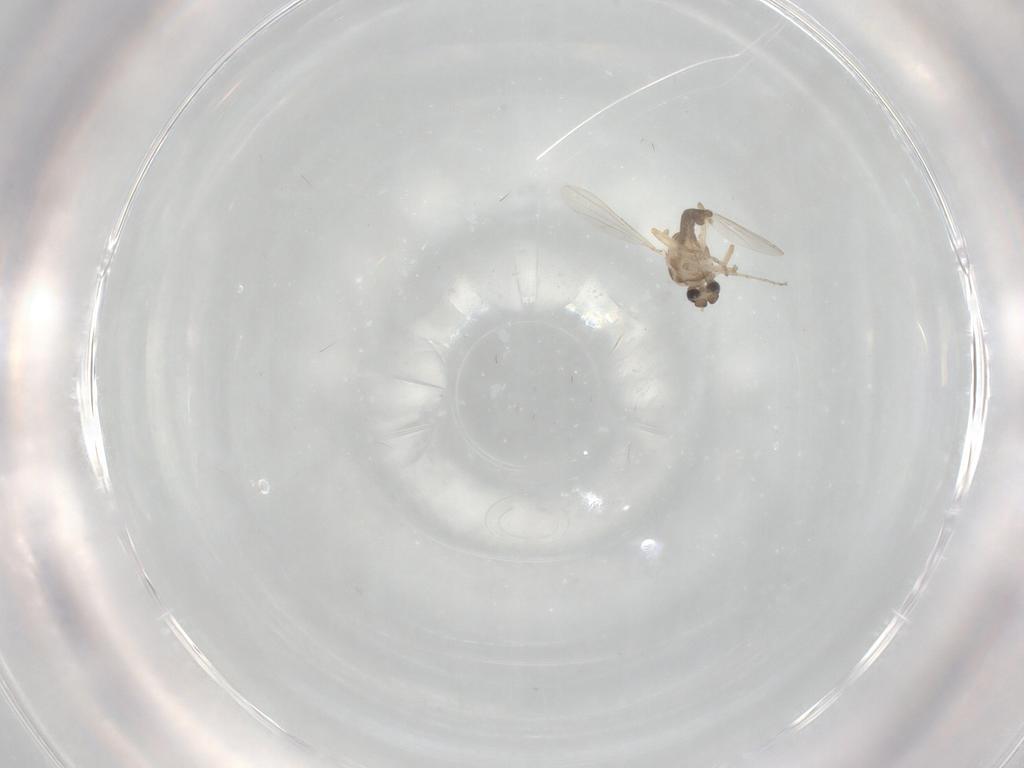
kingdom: Animalia
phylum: Arthropoda
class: Insecta
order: Diptera
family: Ceratopogonidae
